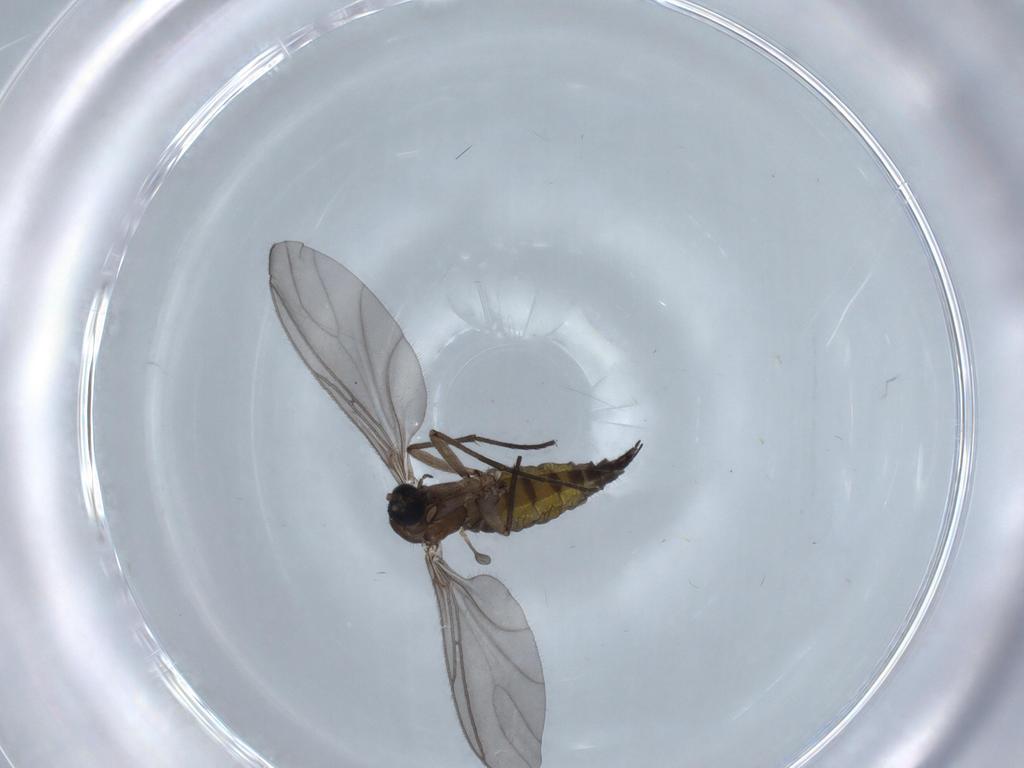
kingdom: Animalia
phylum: Arthropoda
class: Insecta
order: Diptera
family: Sciaridae
